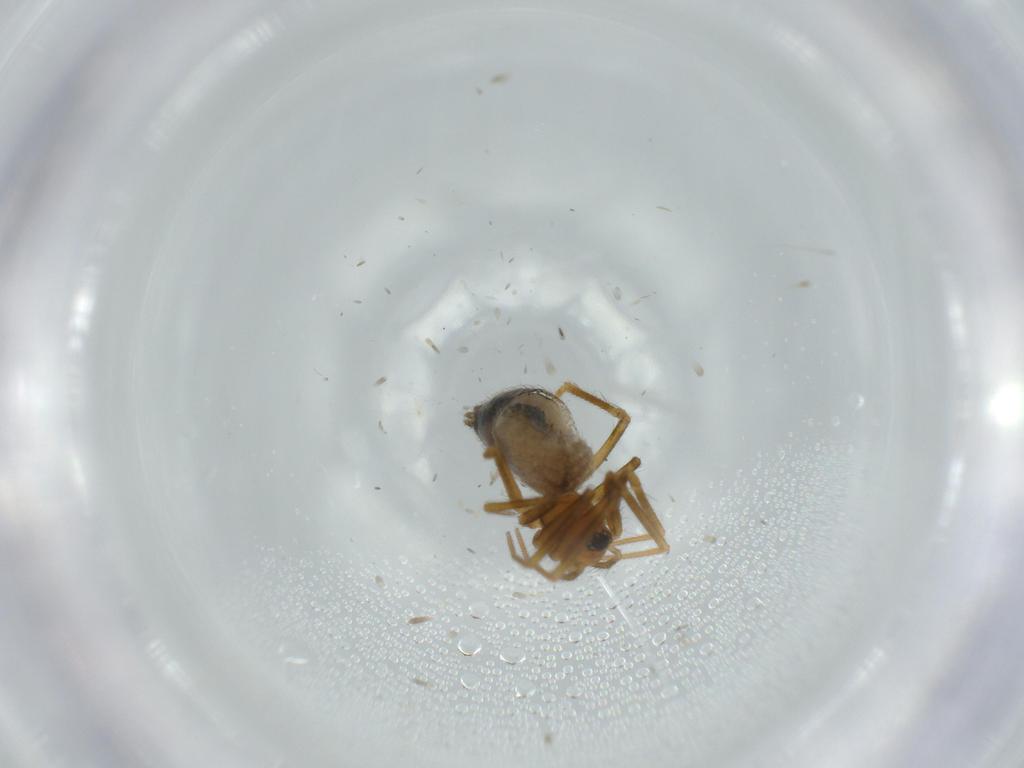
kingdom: Animalia
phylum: Arthropoda
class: Arachnida
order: Araneae
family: Linyphiidae
